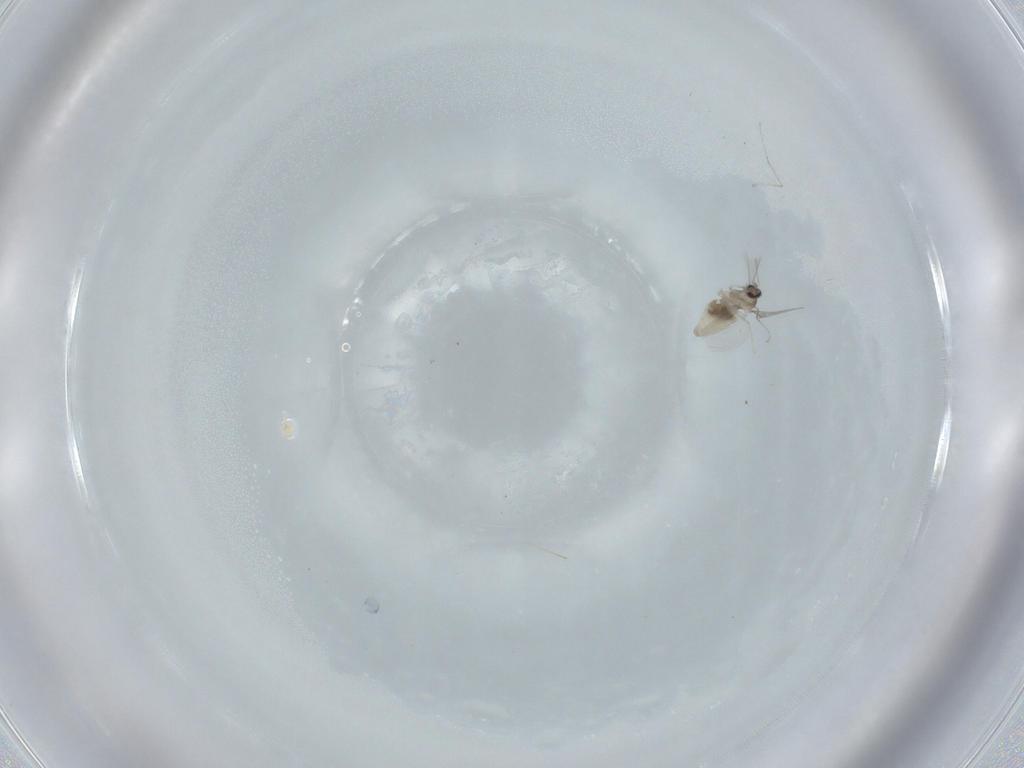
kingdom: Animalia
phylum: Arthropoda
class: Insecta
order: Diptera
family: Cecidomyiidae
